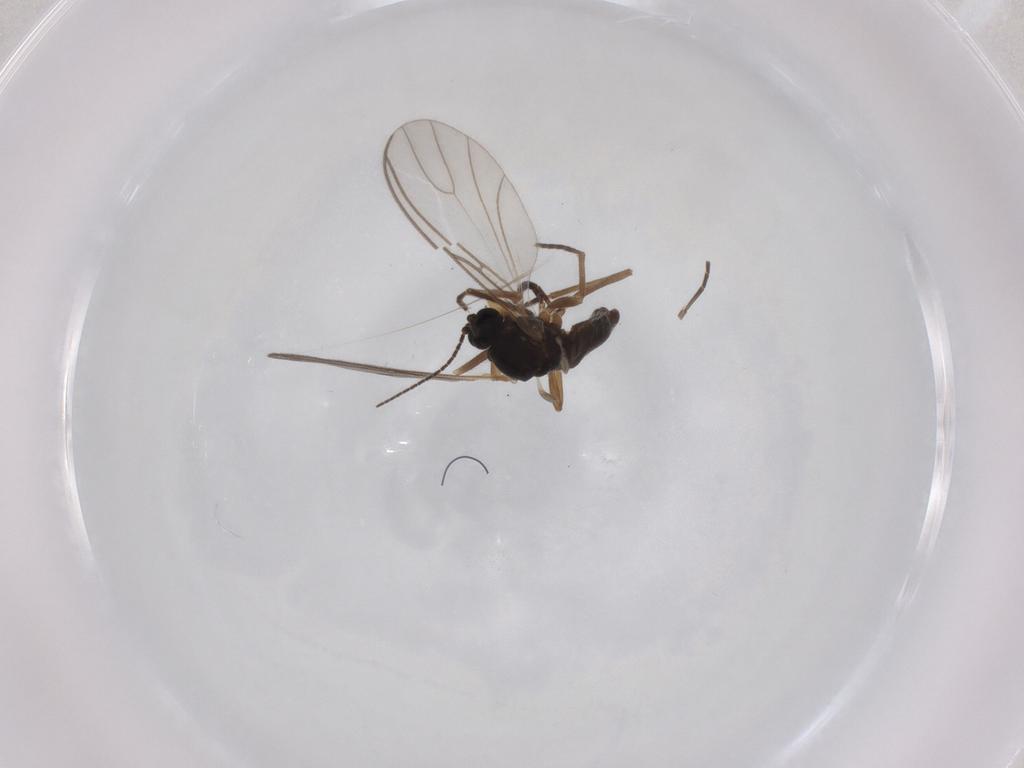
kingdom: Animalia
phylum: Arthropoda
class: Insecta
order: Diptera
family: Chironomidae
